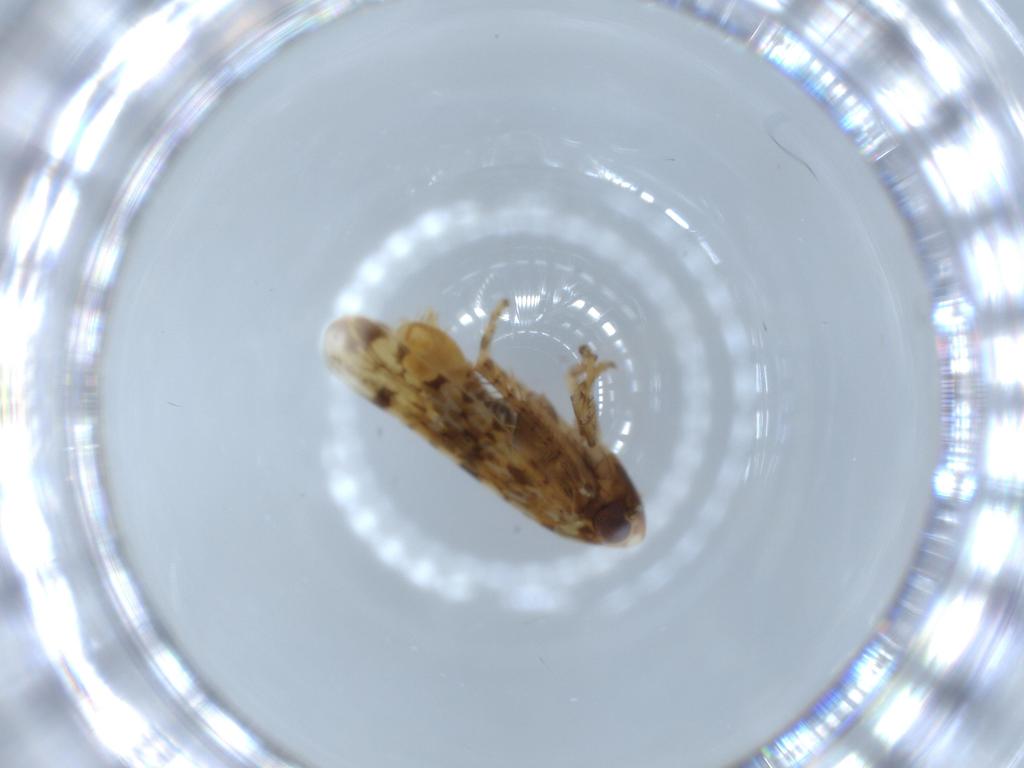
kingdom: Animalia
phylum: Arthropoda
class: Insecta
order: Hemiptera
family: Cicadellidae
